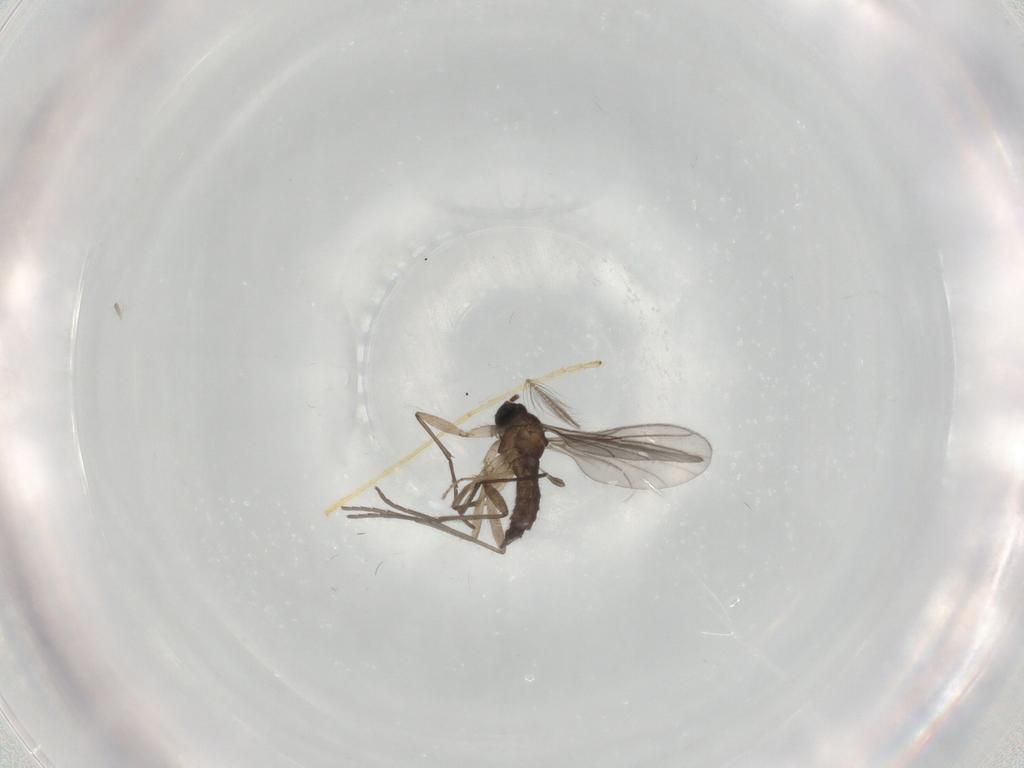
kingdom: Animalia
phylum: Arthropoda
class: Insecta
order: Diptera
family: Sciaridae
